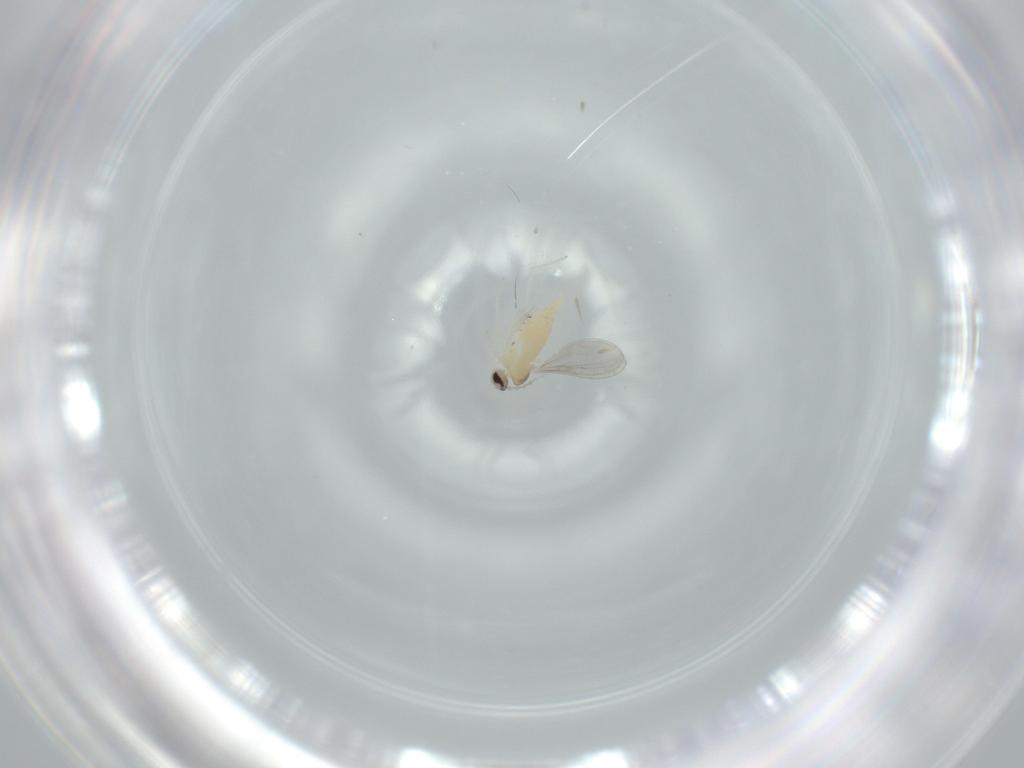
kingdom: Animalia
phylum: Arthropoda
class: Insecta
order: Diptera
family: Cecidomyiidae
